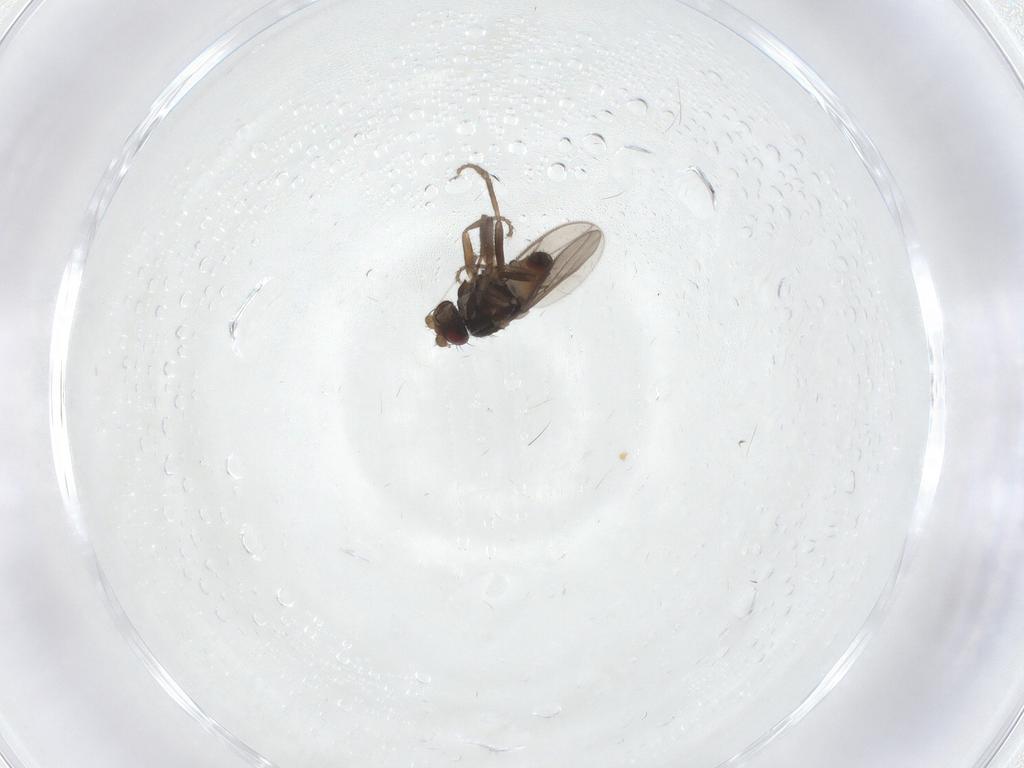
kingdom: Animalia
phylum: Arthropoda
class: Insecta
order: Diptera
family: Sphaeroceridae
